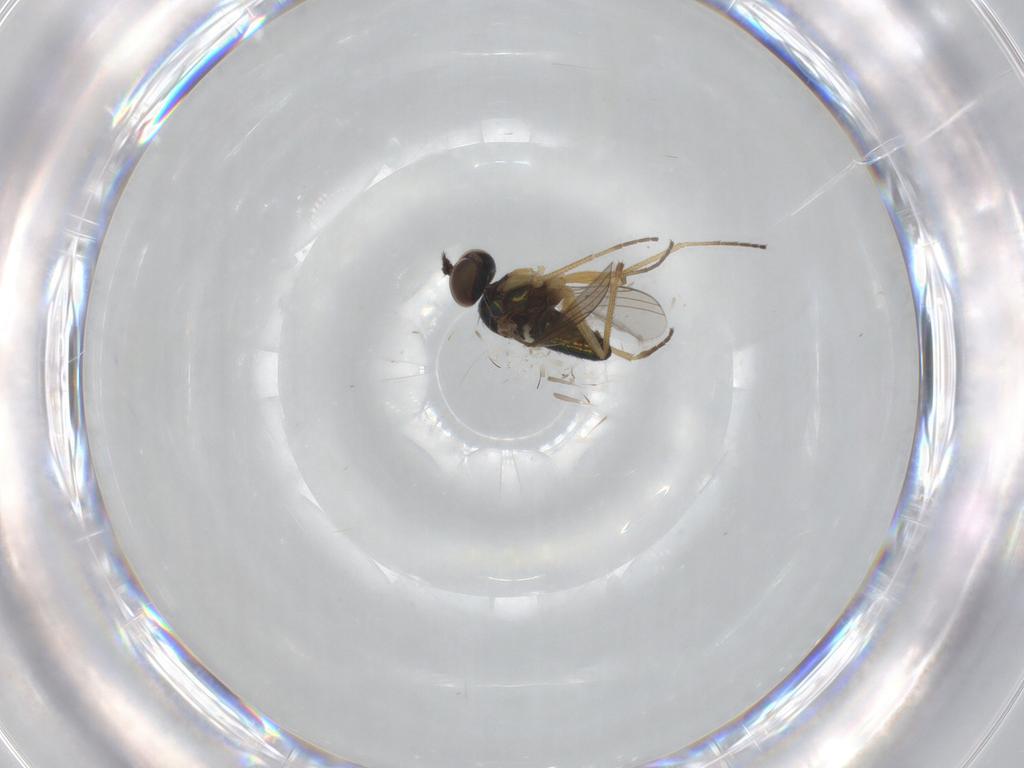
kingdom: Animalia
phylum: Arthropoda
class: Insecta
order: Diptera
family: Dolichopodidae
